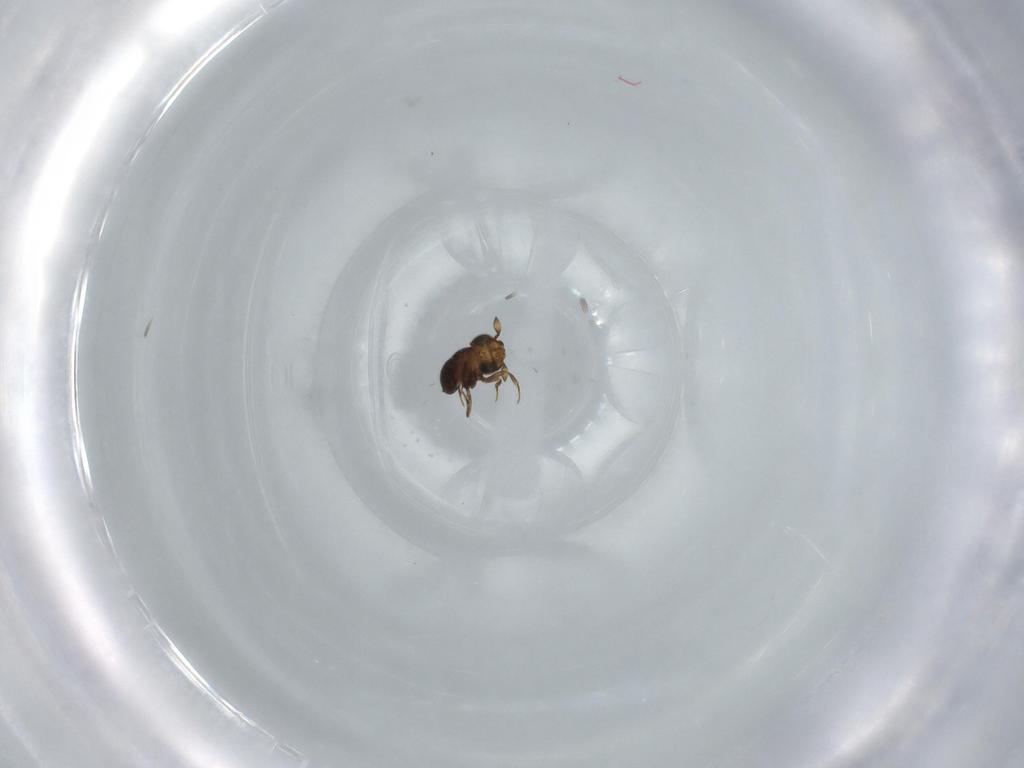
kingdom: Animalia
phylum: Arthropoda
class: Insecta
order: Hymenoptera
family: Scelionidae
